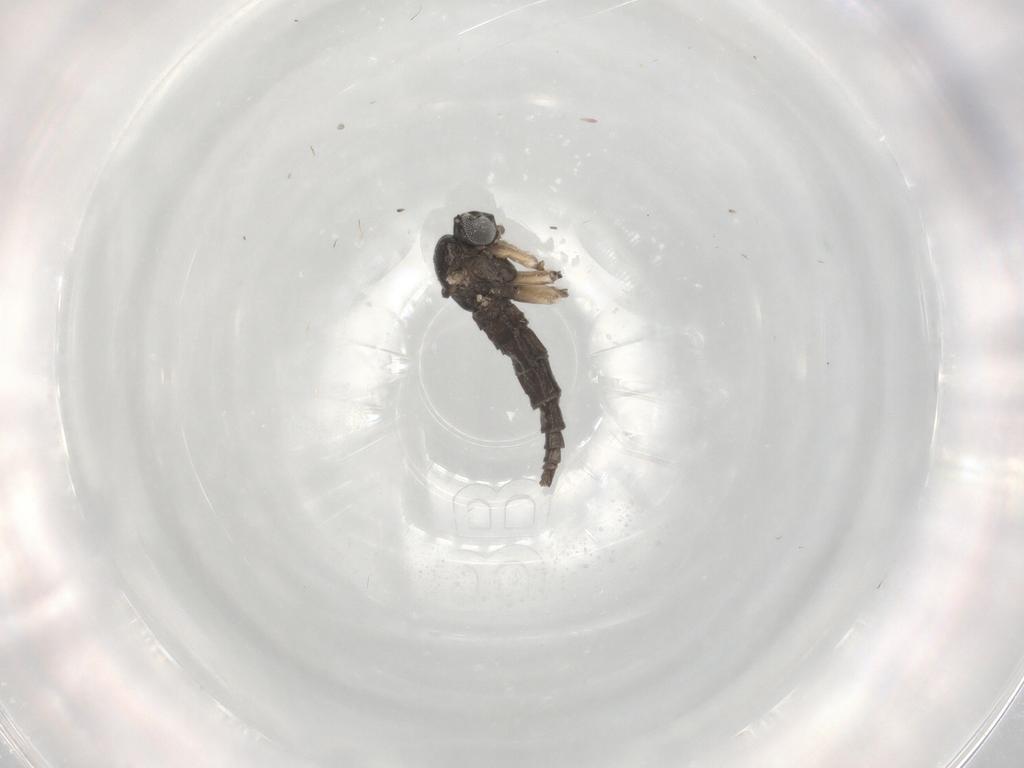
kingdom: Animalia
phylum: Arthropoda
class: Insecta
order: Diptera
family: Sciaridae
